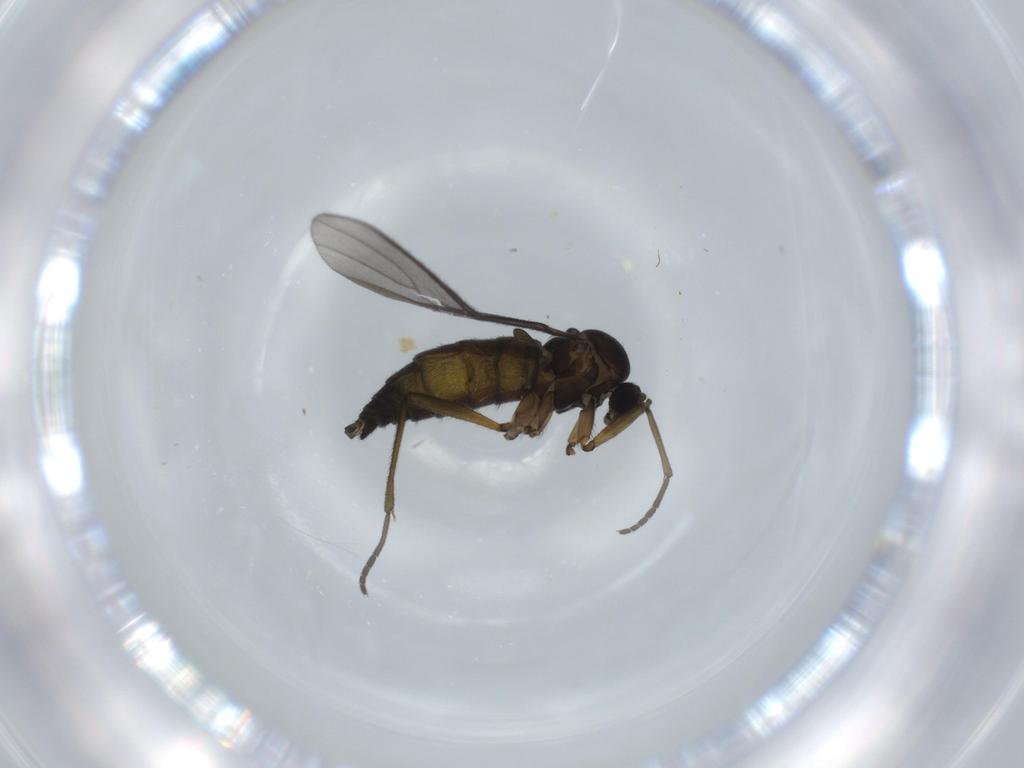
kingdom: Animalia
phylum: Arthropoda
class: Insecta
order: Diptera
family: Sciaridae
